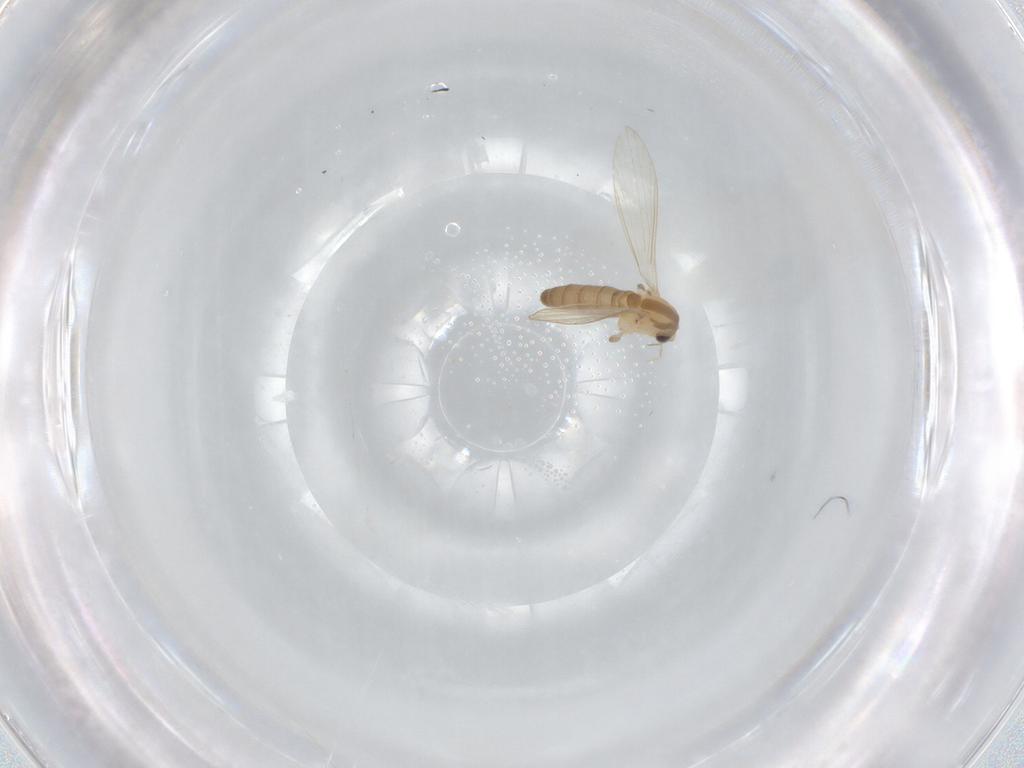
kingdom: Animalia
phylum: Arthropoda
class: Insecta
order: Diptera
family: Psychodidae
